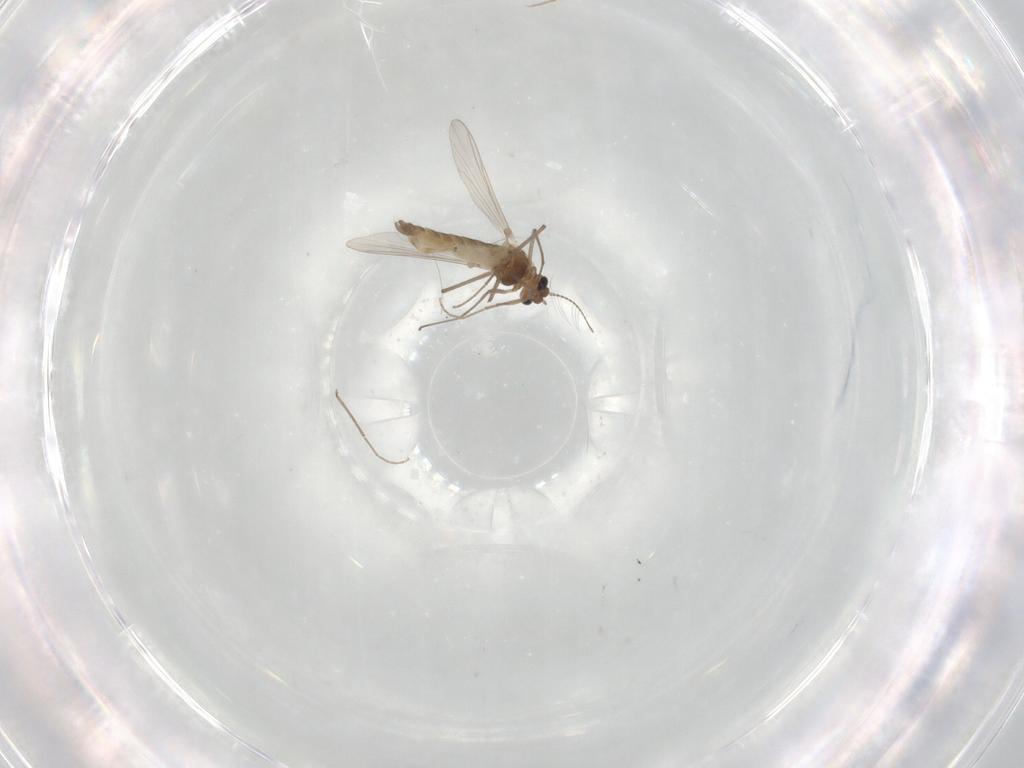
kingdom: Animalia
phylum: Arthropoda
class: Insecta
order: Diptera
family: Chironomidae
